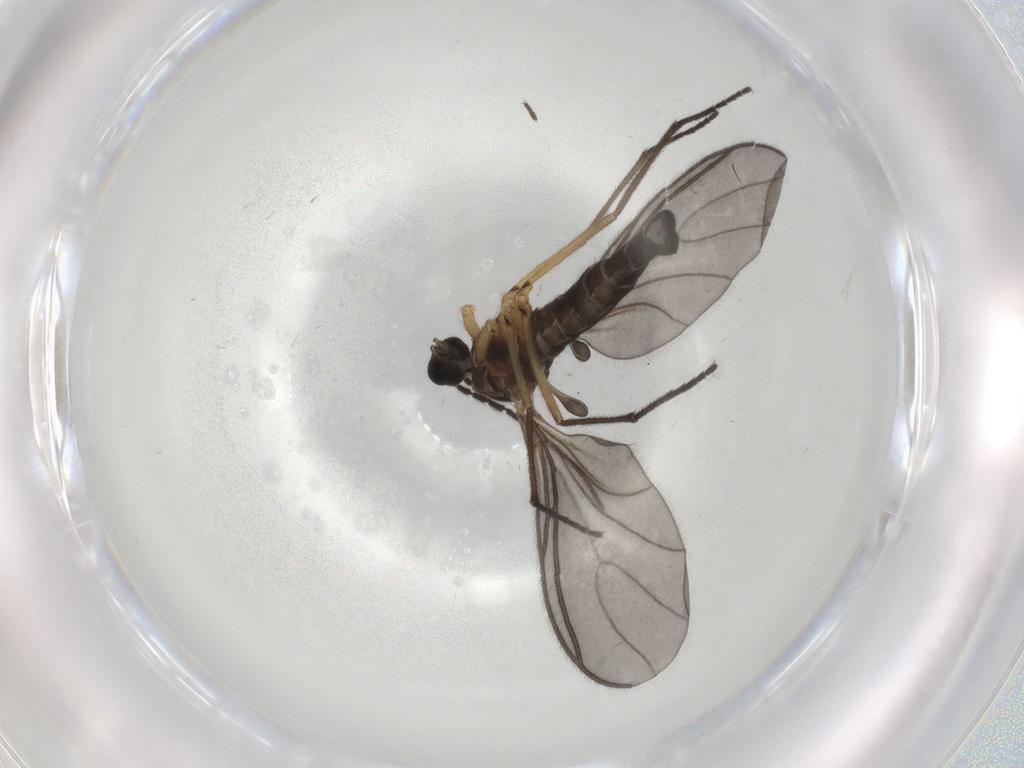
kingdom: Animalia
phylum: Arthropoda
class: Insecta
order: Diptera
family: Sciaridae
